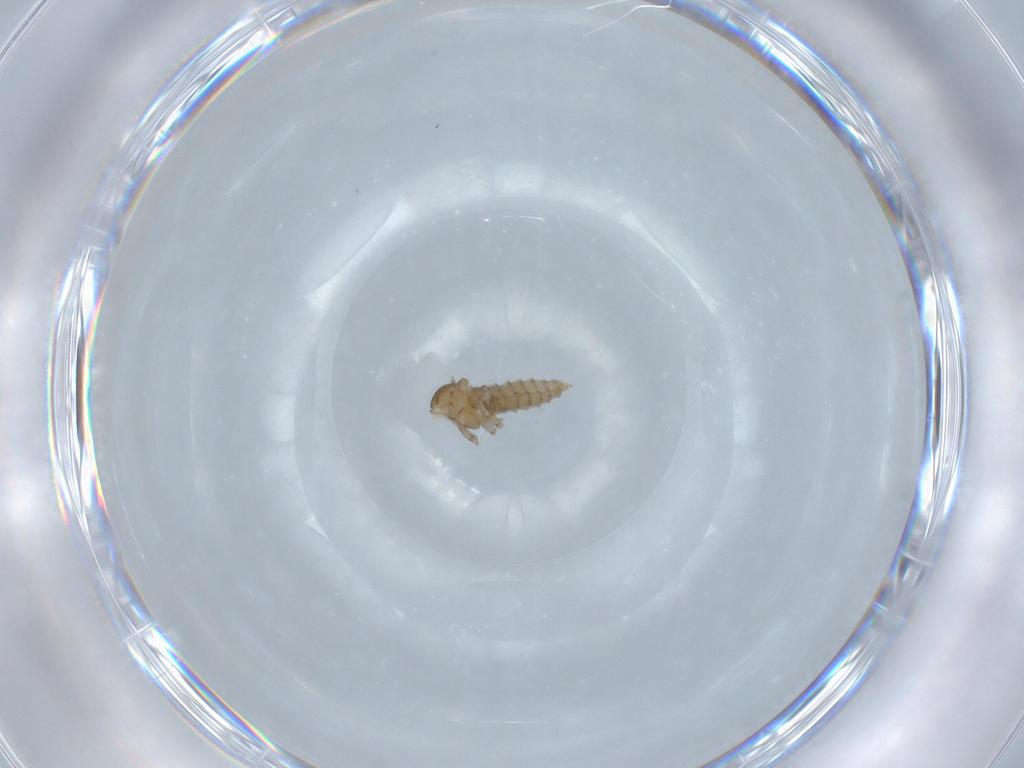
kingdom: Animalia
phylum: Arthropoda
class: Insecta
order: Diptera
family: Cecidomyiidae
